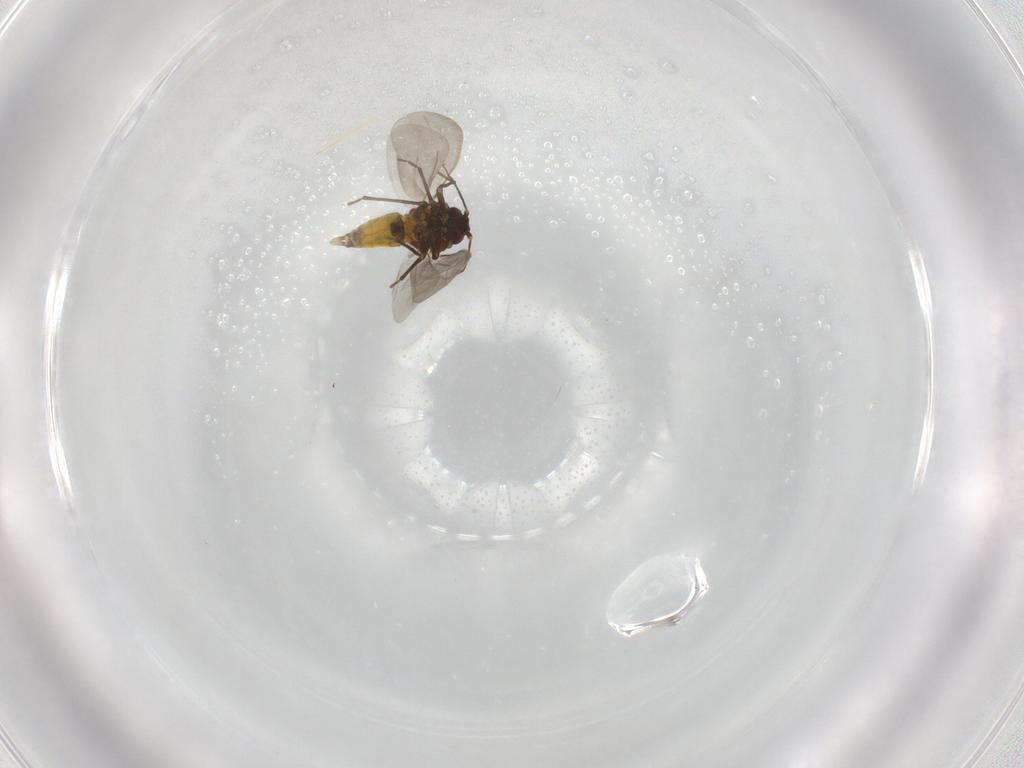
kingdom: Animalia
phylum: Arthropoda
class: Insecta
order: Hemiptera
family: Aleyrodidae
